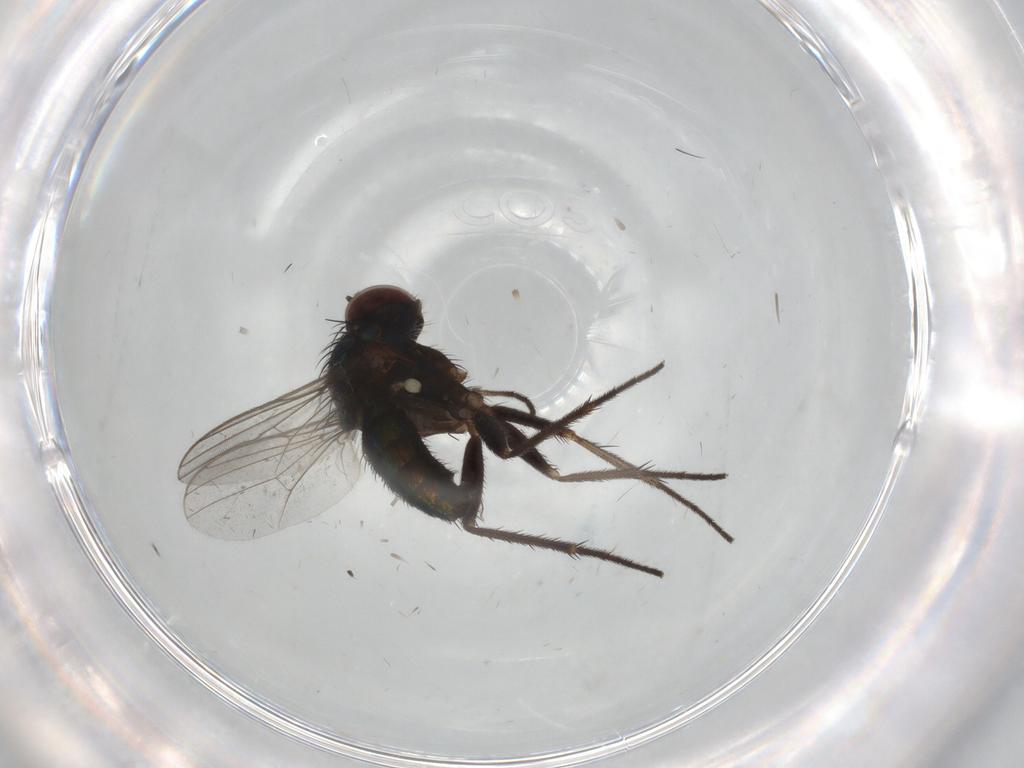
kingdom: Animalia
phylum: Arthropoda
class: Insecta
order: Diptera
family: Dolichopodidae
